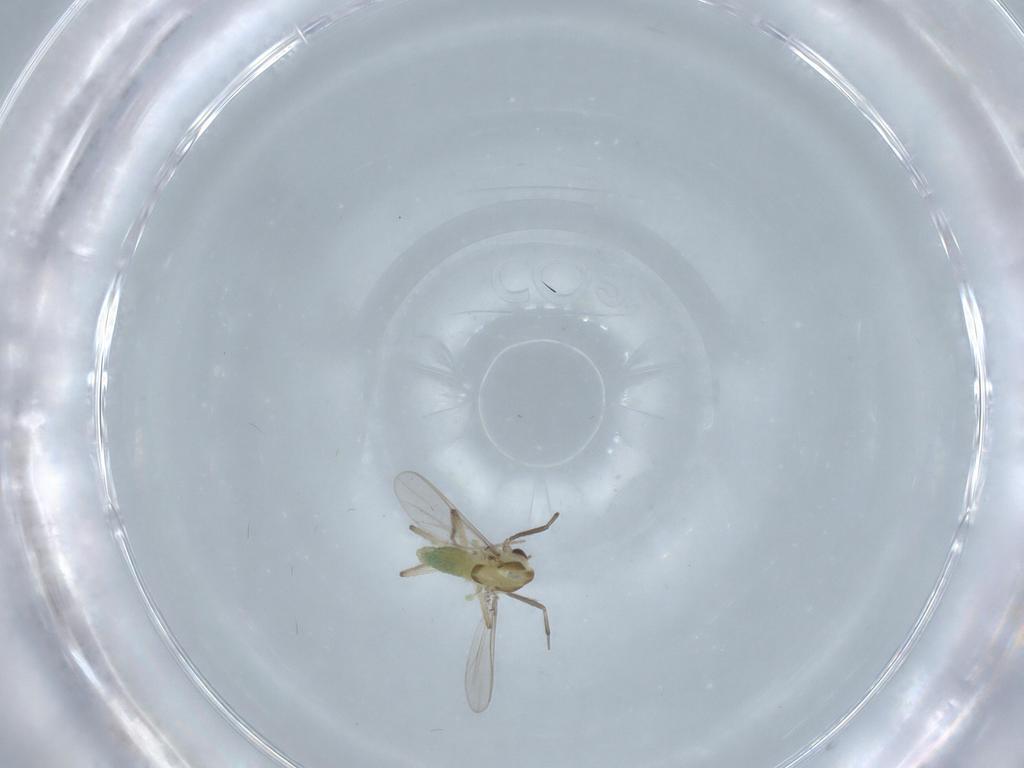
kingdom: Animalia
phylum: Arthropoda
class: Insecta
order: Diptera
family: Chironomidae
